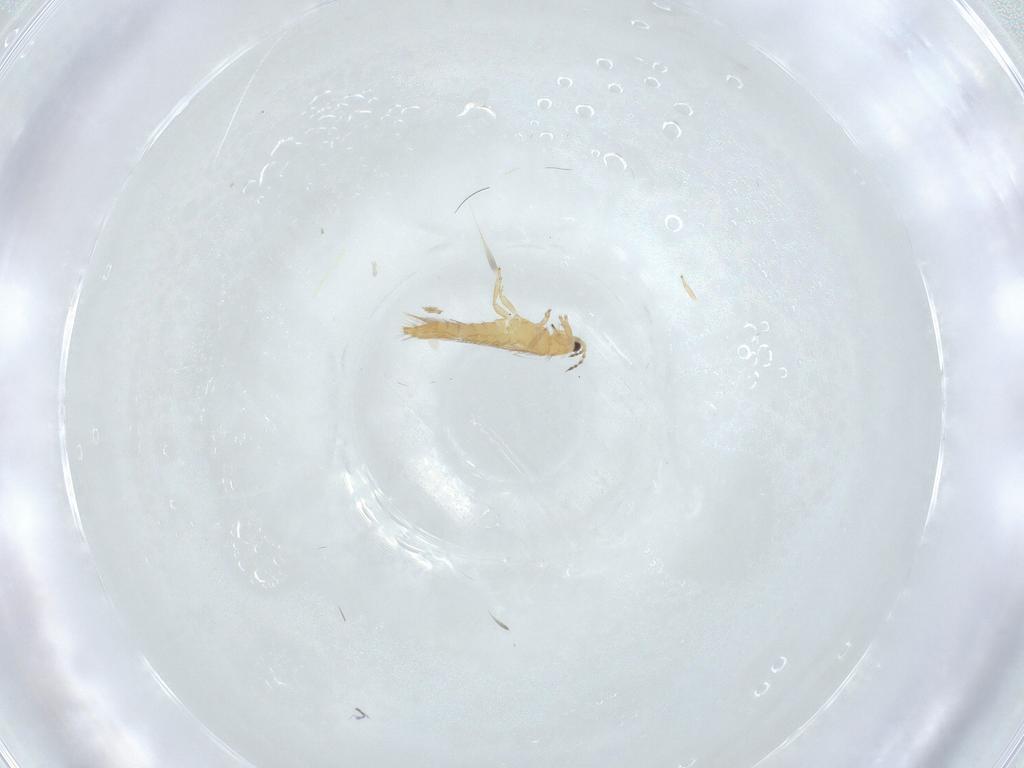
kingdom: Animalia
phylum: Arthropoda
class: Insecta
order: Thysanoptera
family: Thripidae
